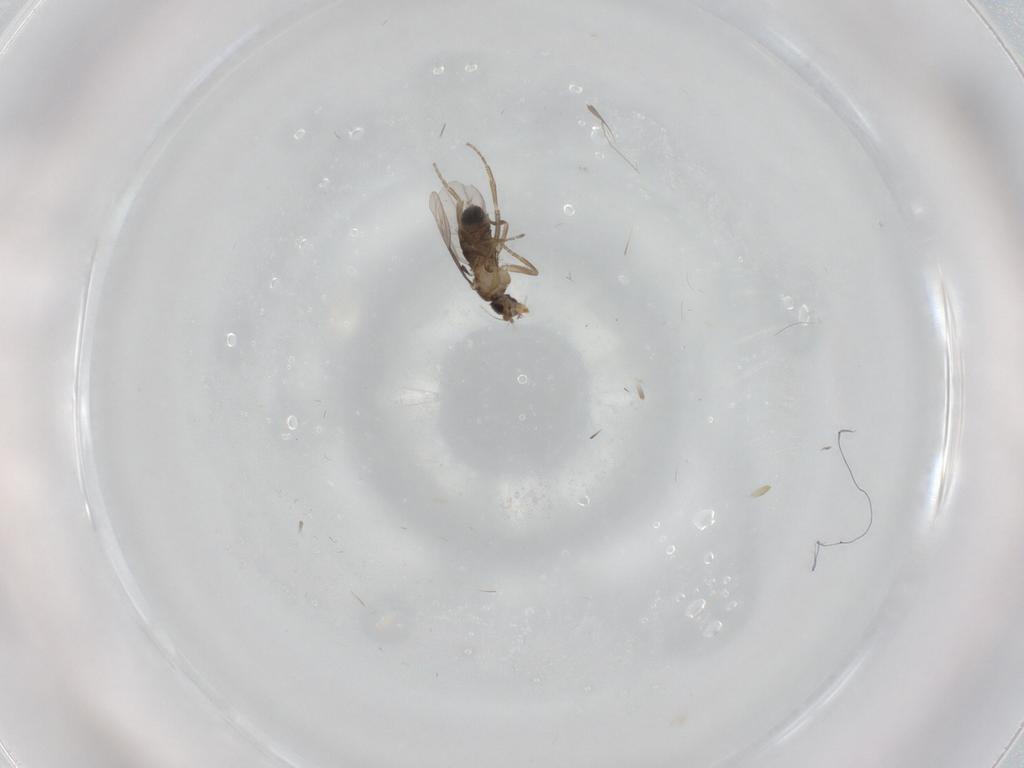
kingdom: Animalia
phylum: Arthropoda
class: Insecta
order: Diptera
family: Phoridae
